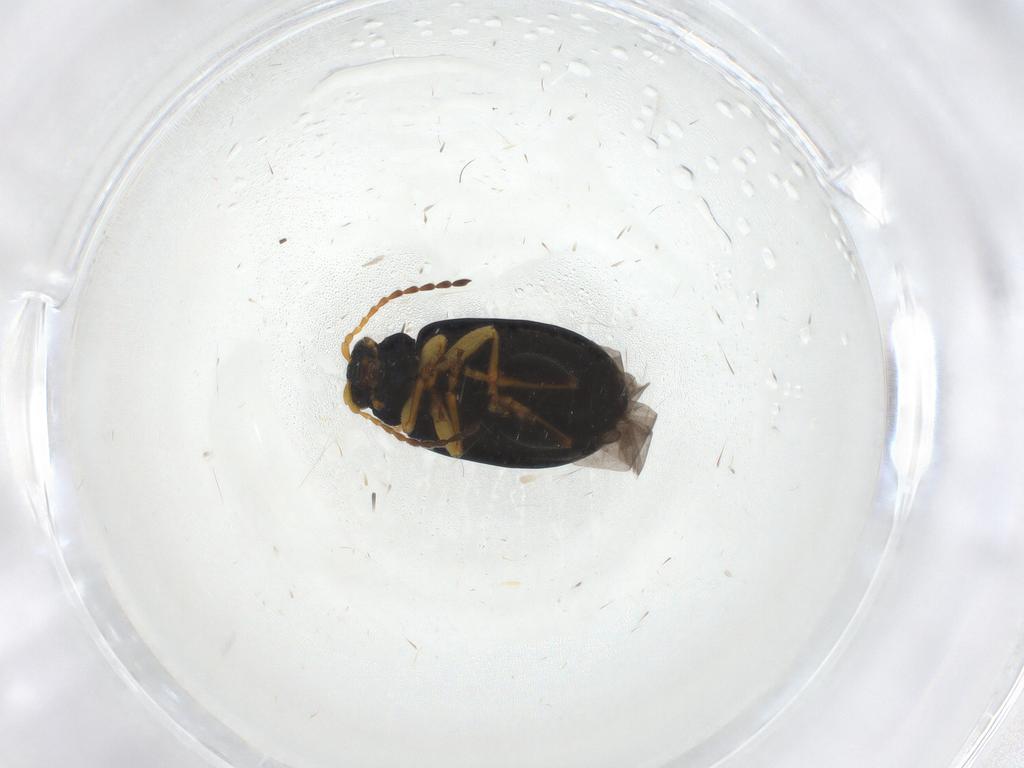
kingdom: Animalia
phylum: Arthropoda
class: Insecta
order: Coleoptera
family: Chrysomelidae
